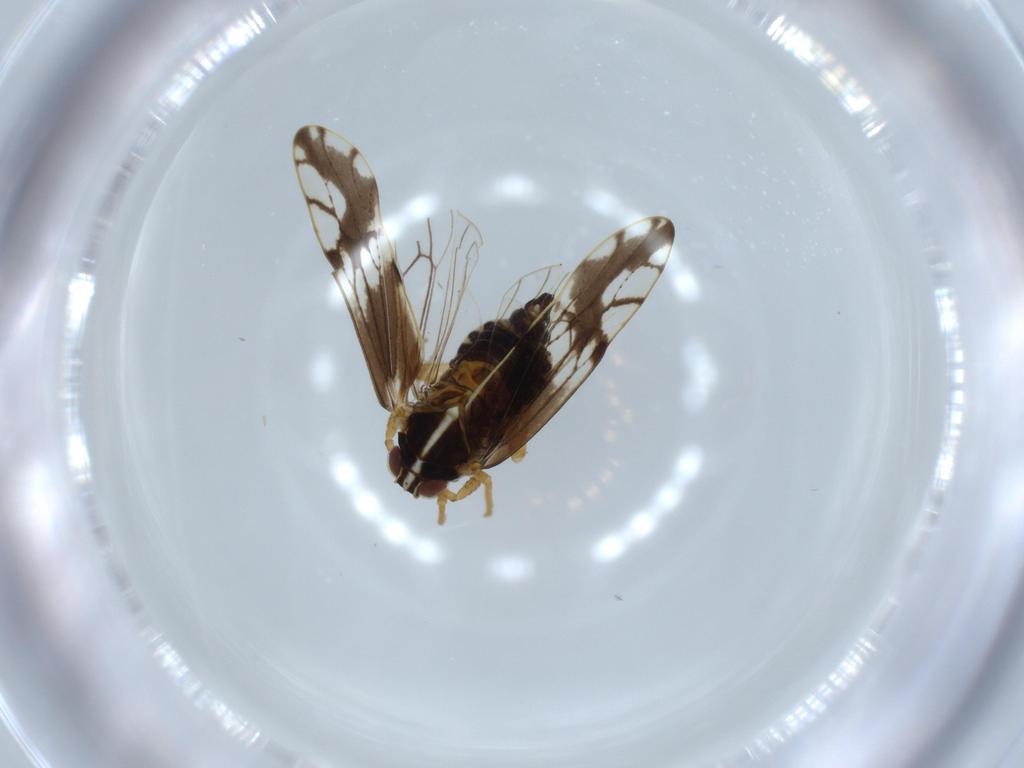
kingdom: Animalia
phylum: Arthropoda
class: Insecta
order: Hemiptera
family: Delphacidae
